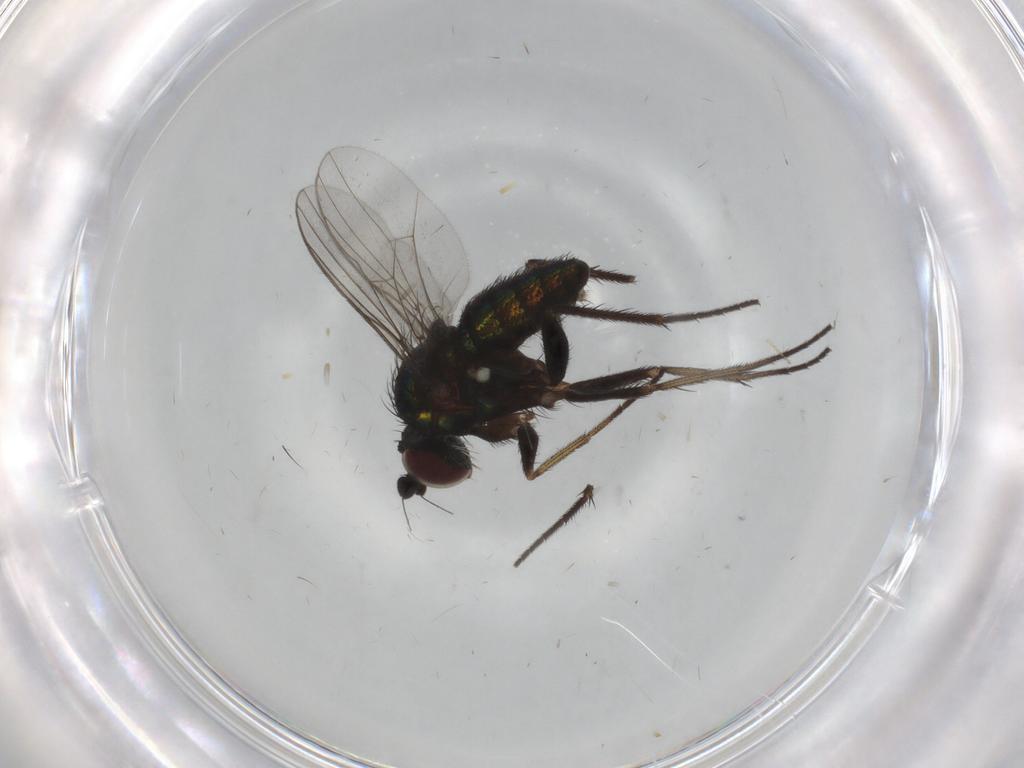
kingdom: Animalia
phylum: Arthropoda
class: Insecta
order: Diptera
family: Dolichopodidae
